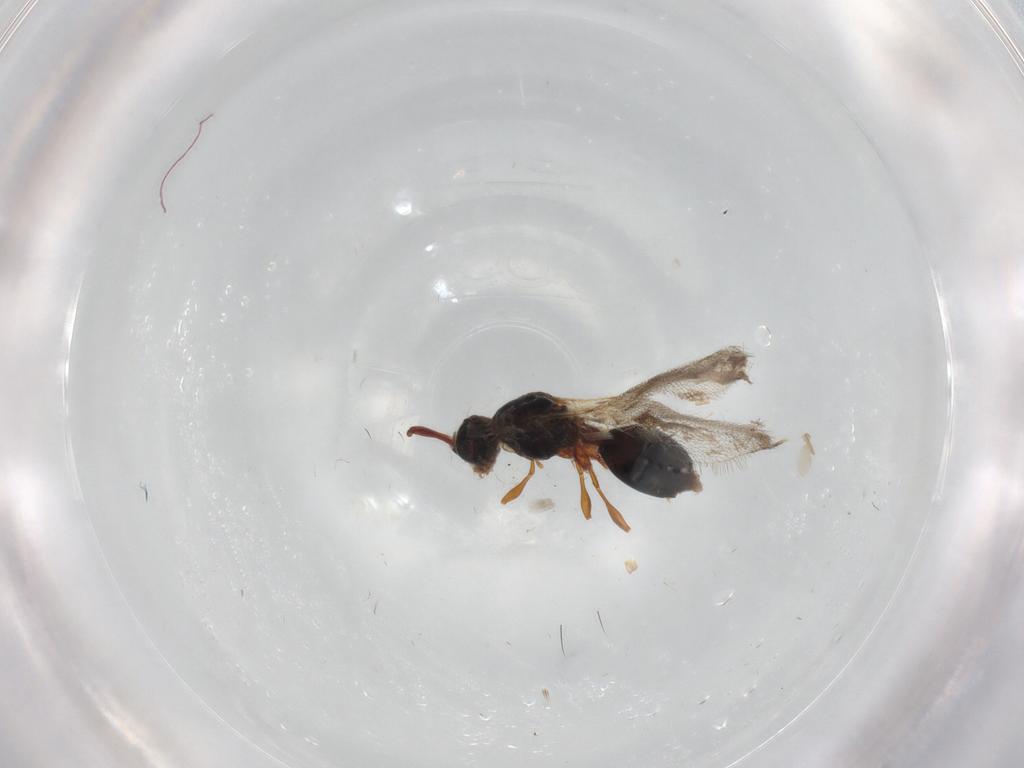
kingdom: Animalia
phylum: Arthropoda
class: Insecta
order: Hymenoptera
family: Diapriidae
